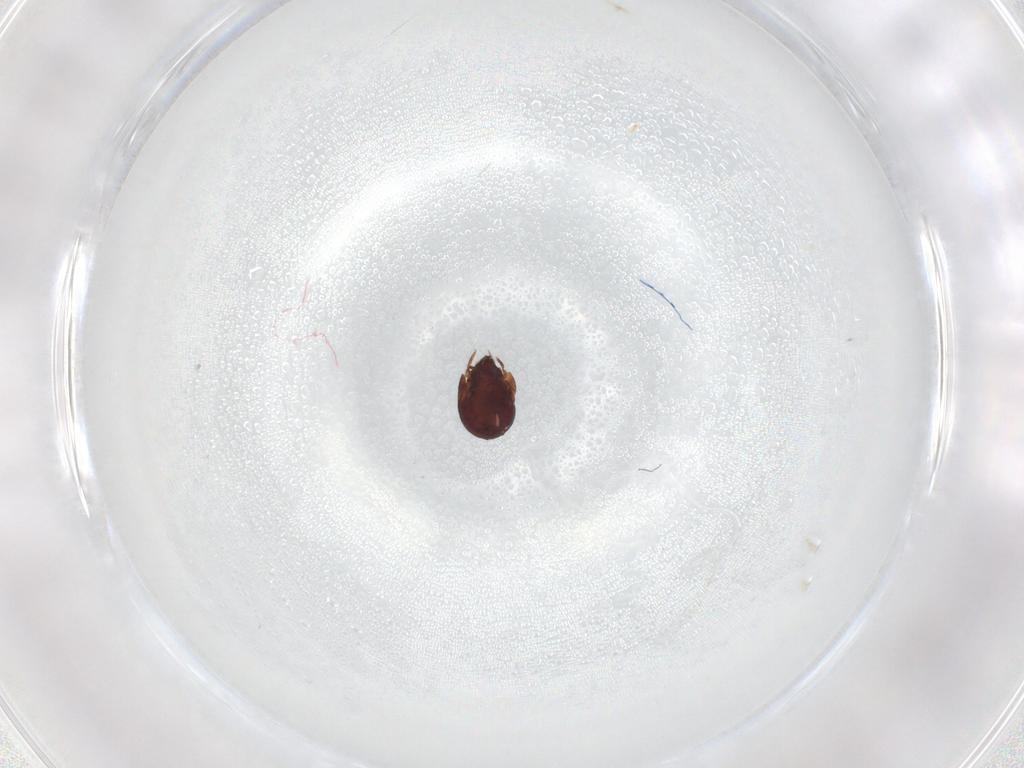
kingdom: Animalia
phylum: Arthropoda
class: Arachnida
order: Sarcoptiformes
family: Humerobatidae
